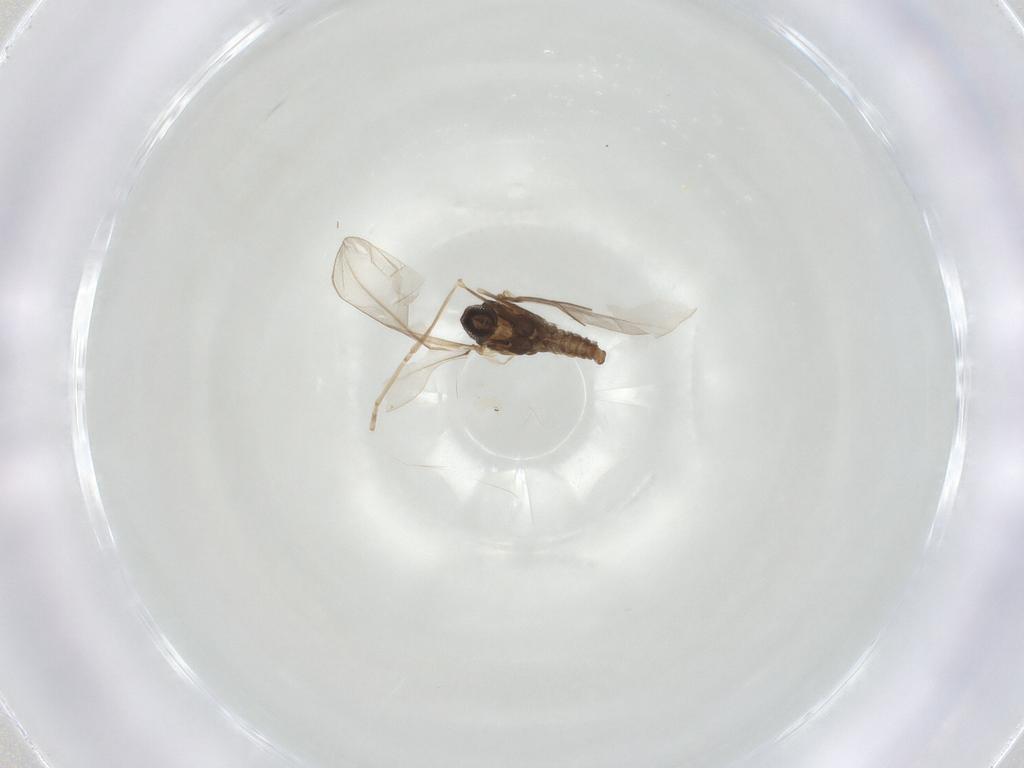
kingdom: Animalia
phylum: Arthropoda
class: Insecta
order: Diptera
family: Cecidomyiidae
